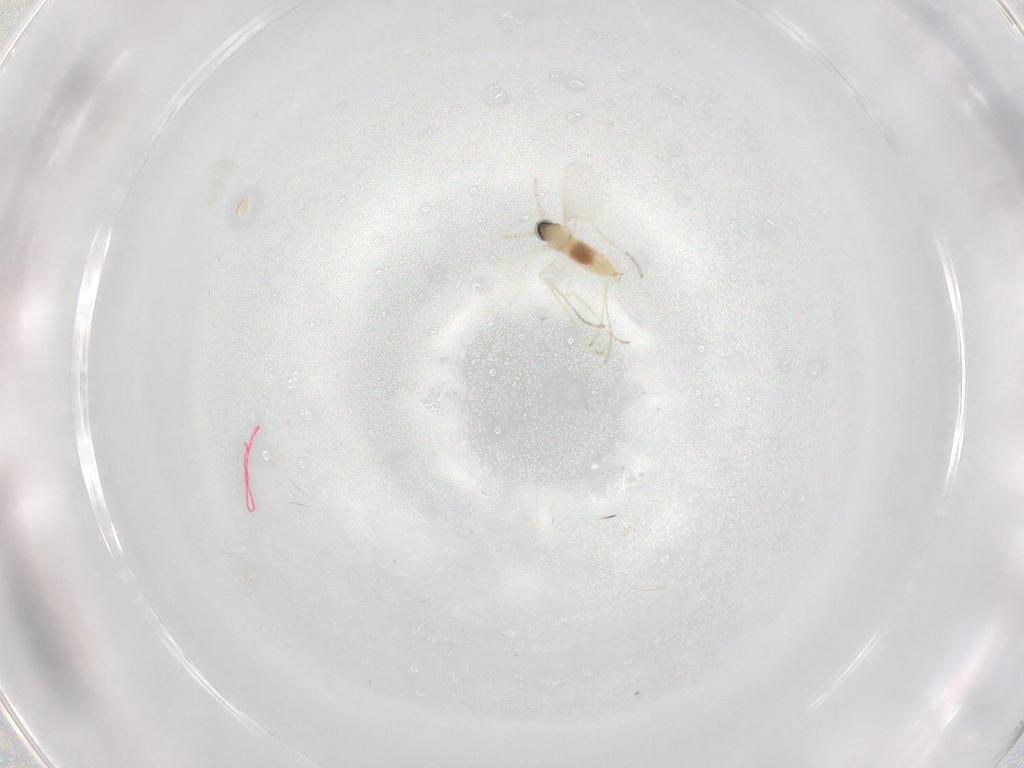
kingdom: Animalia
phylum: Arthropoda
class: Insecta
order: Diptera
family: Cecidomyiidae
